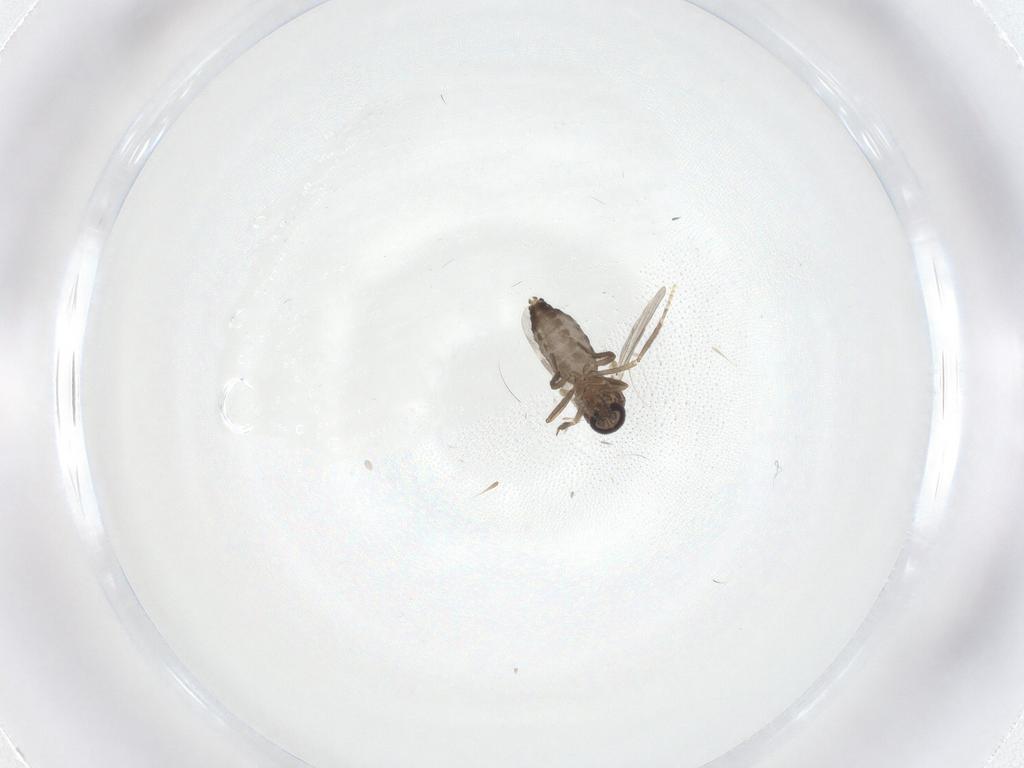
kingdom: Animalia
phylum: Arthropoda
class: Insecta
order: Diptera
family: Ceratopogonidae
